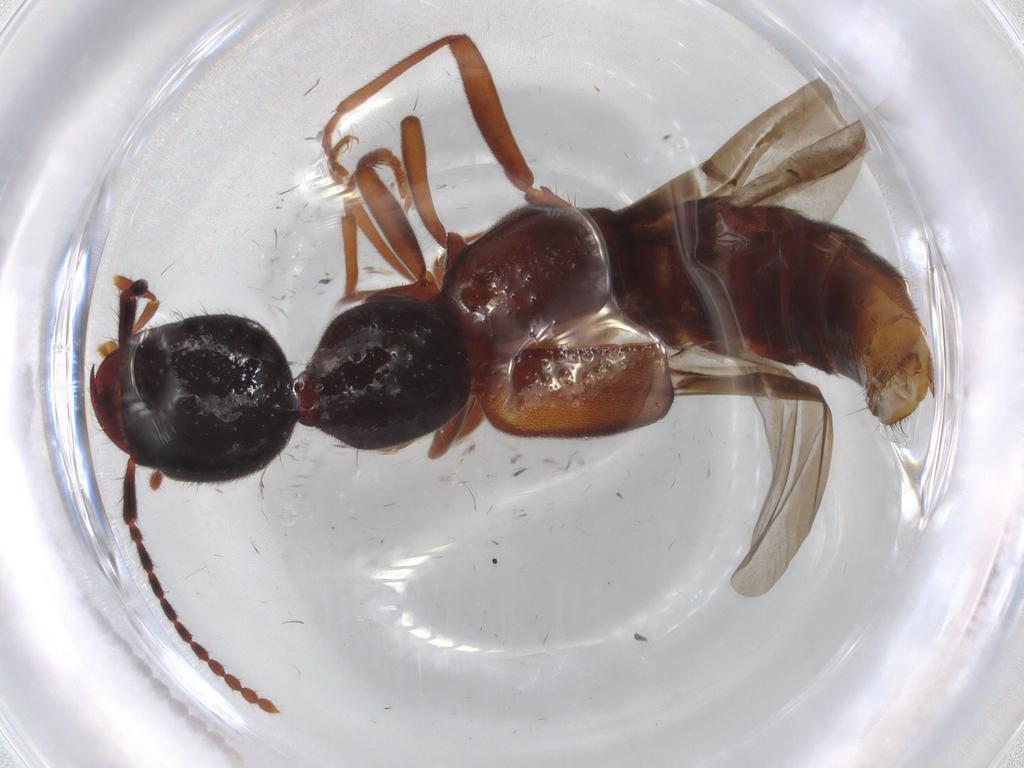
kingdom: Animalia
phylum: Arthropoda
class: Insecta
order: Coleoptera
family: Staphylinidae
